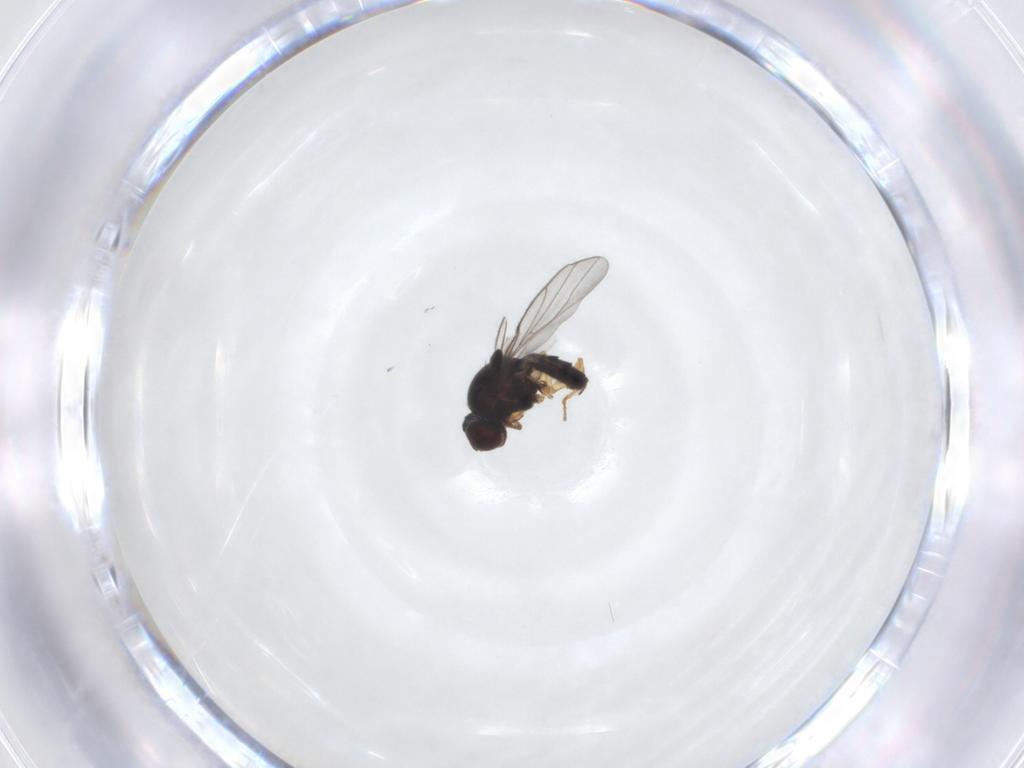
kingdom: Animalia
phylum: Arthropoda
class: Insecta
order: Diptera
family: Chloropidae
